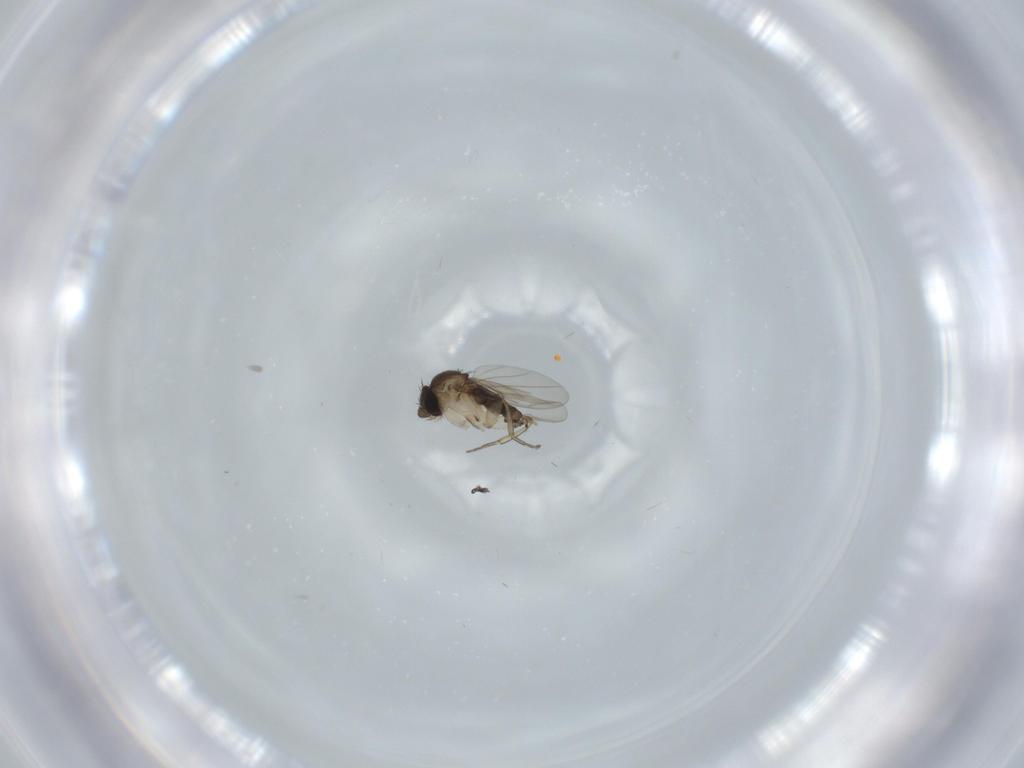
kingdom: Animalia
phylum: Arthropoda
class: Insecta
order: Diptera
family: Phoridae
